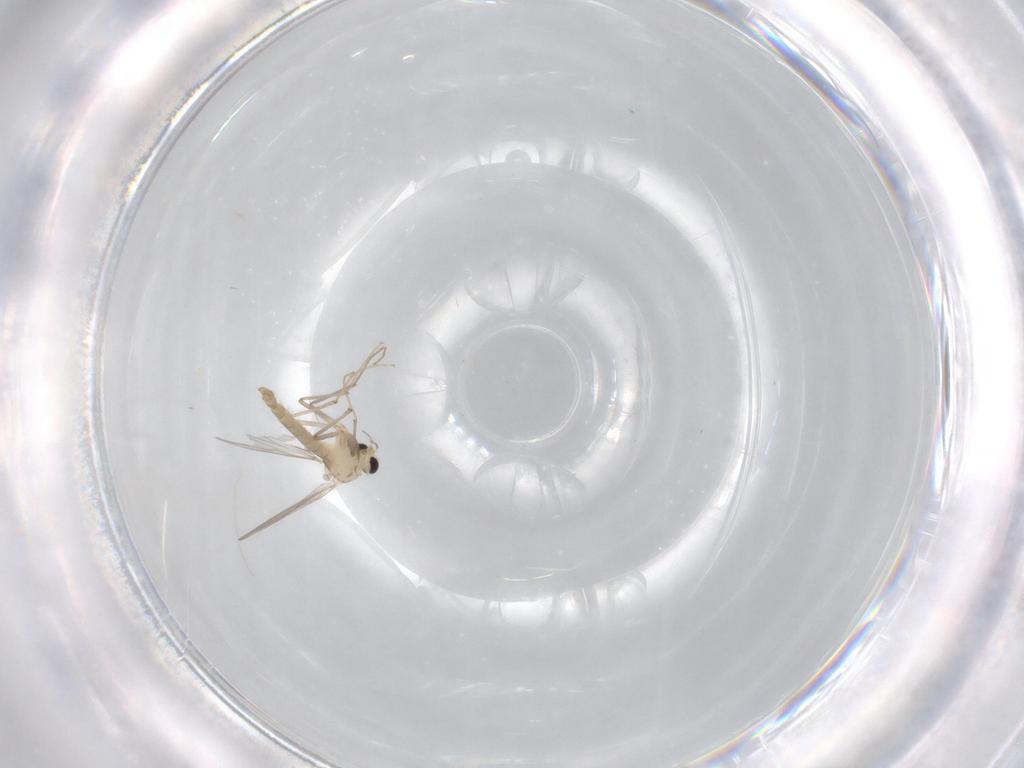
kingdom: Animalia
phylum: Arthropoda
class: Insecta
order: Diptera
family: Chironomidae
